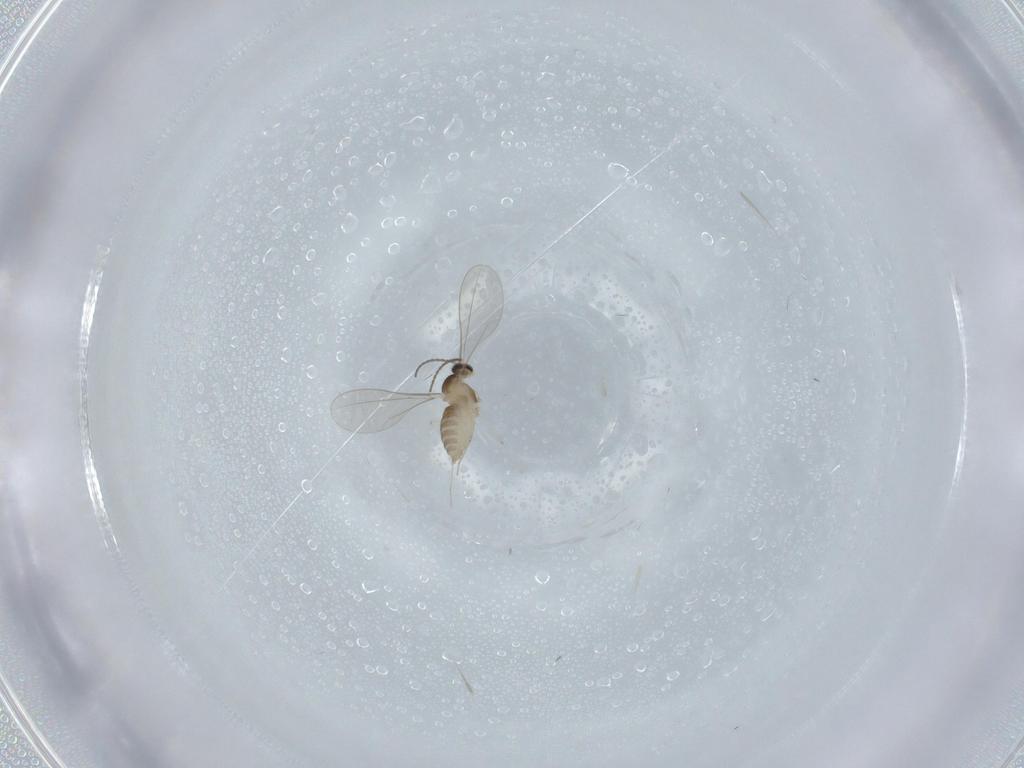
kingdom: Animalia
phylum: Arthropoda
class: Insecta
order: Diptera
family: Cecidomyiidae
